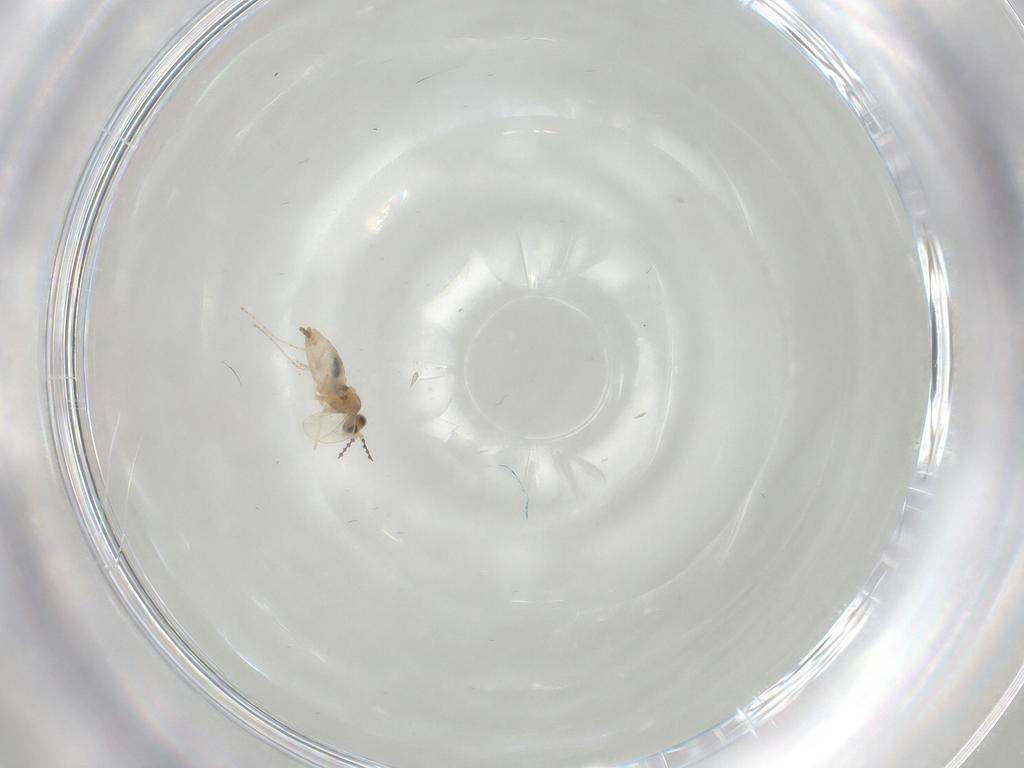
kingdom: Animalia
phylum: Arthropoda
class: Insecta
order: Diptera
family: Cecidomyiidae
